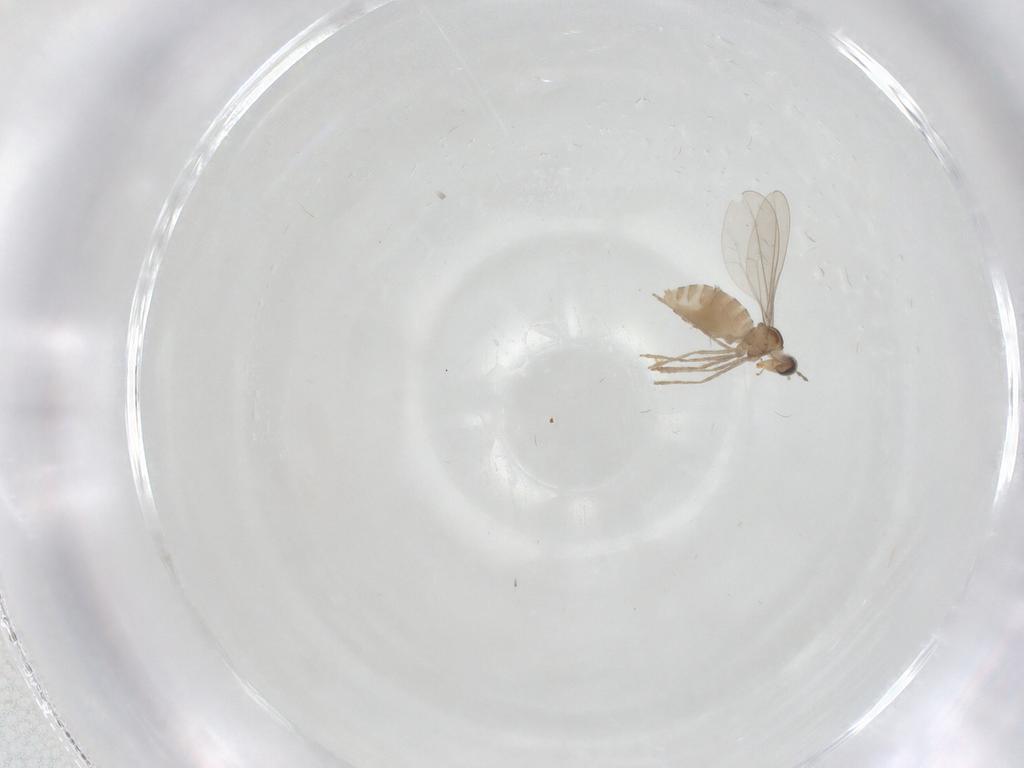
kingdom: Animalia
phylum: Arthropoda
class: Insecta
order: Diptera
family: Cecidomyiidae
